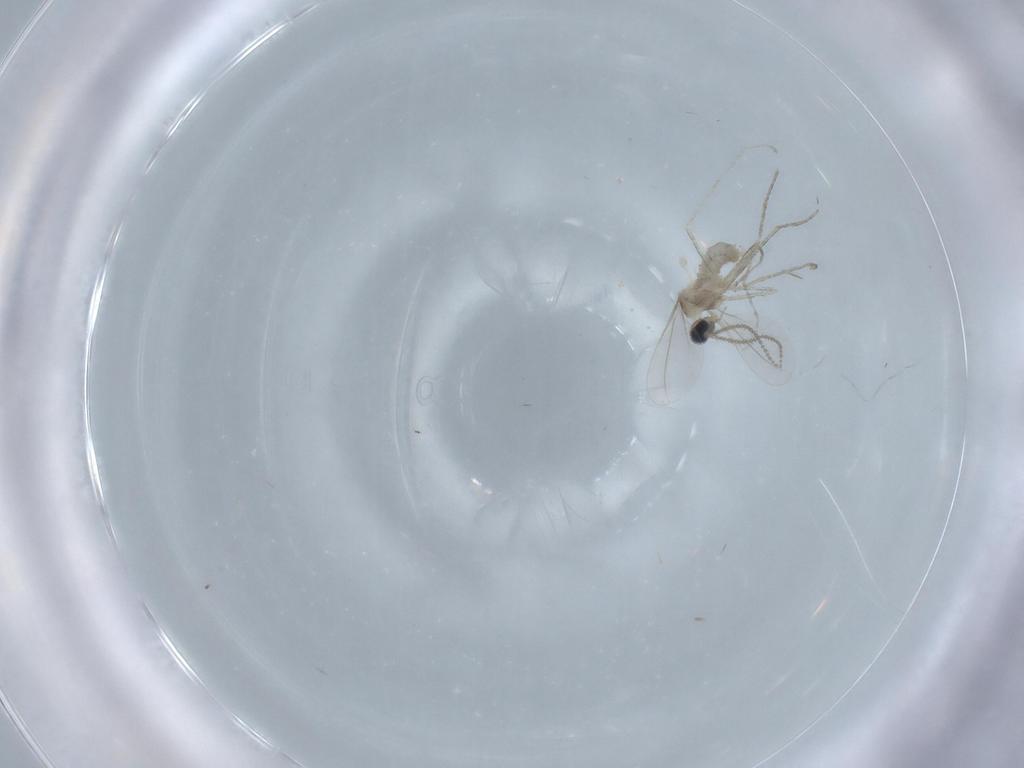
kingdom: Animalia
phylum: Arthropoda
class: Insecta
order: Diptera
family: Cecidomyiidae
